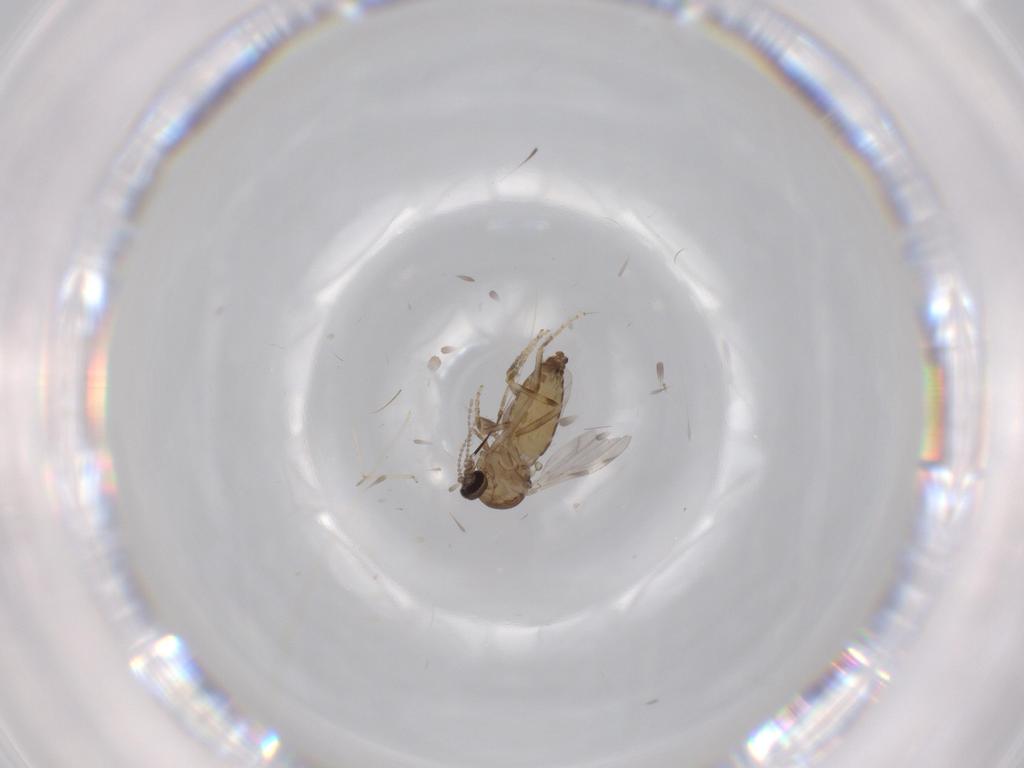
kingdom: Animalia
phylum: Arthropoda
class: Insecta
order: Diptera
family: Ceratopogonidae
